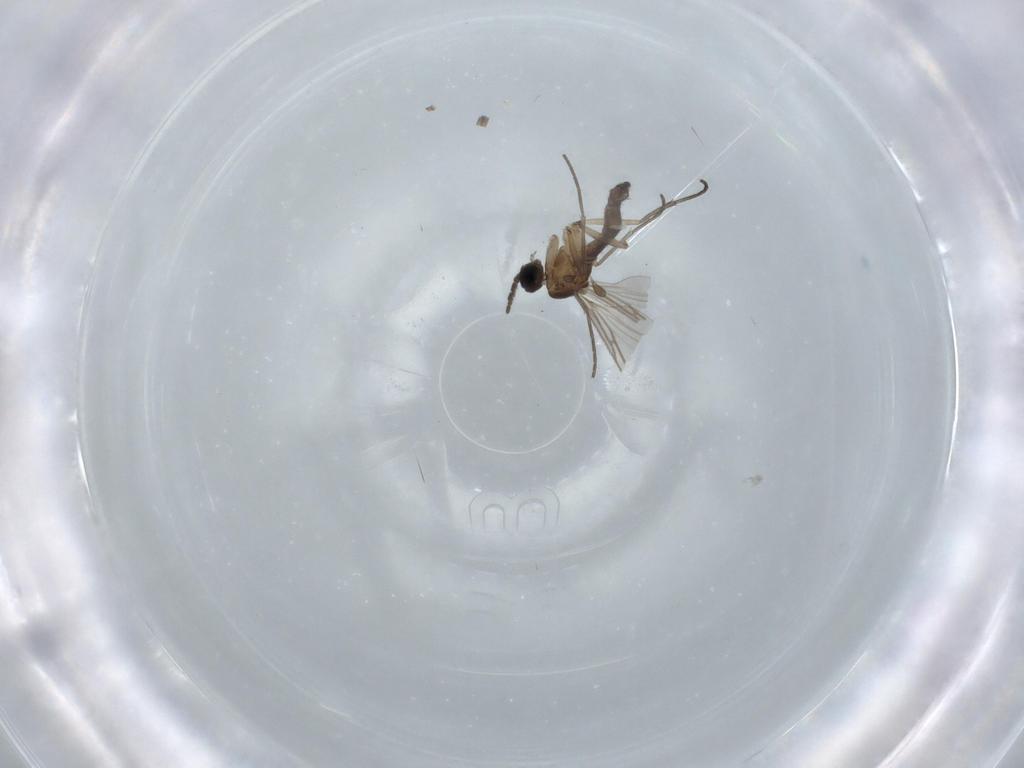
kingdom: Animalia
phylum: Arthropoda
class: Insecta
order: Diptera
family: Sciaridae
